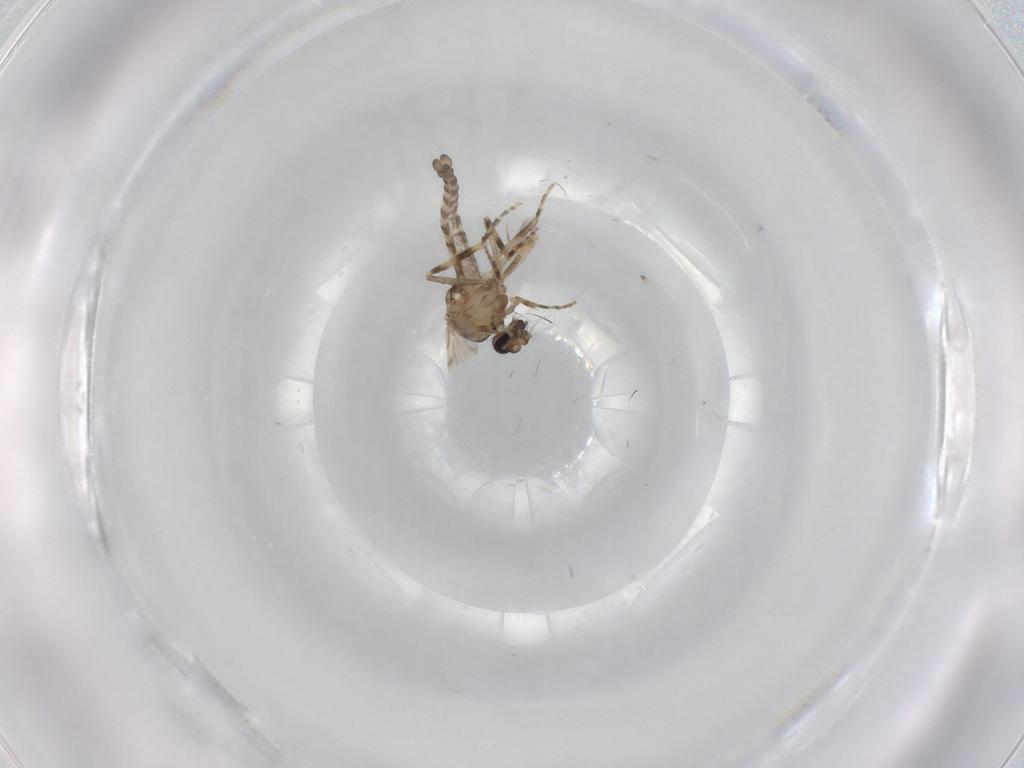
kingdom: Animalia
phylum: Arthropoda
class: Insecta
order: Diptera
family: Ceratopogonidae
